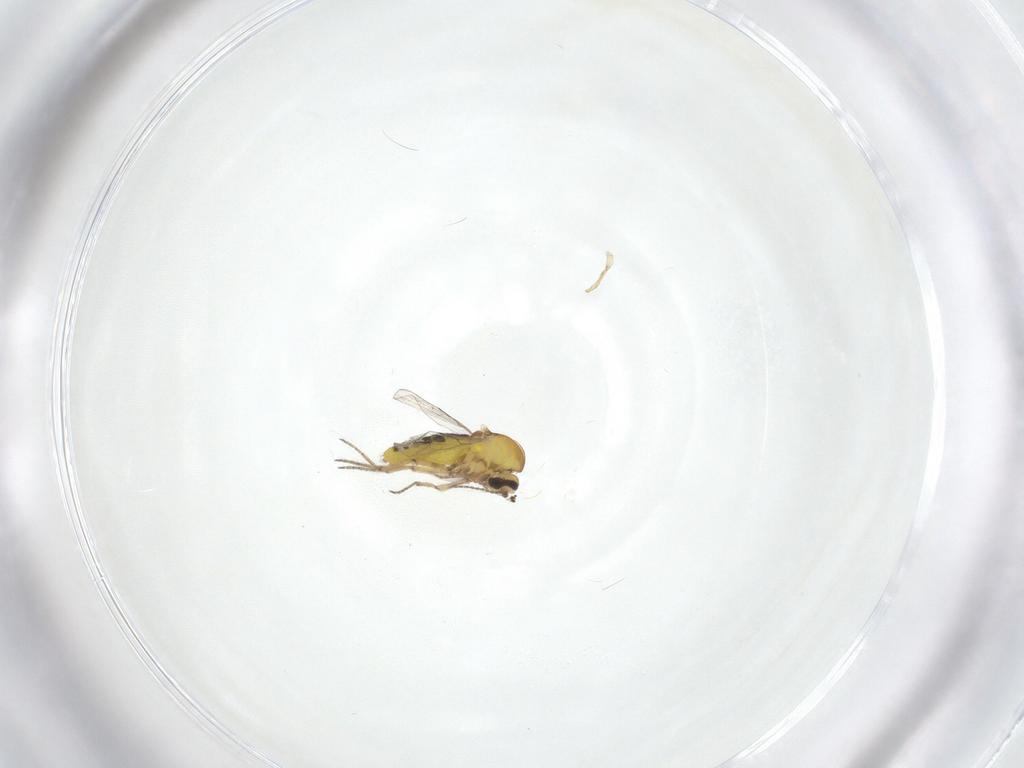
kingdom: Animalia
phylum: Arthropoda
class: Insecta
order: Diptera
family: Ceratopogonidae
